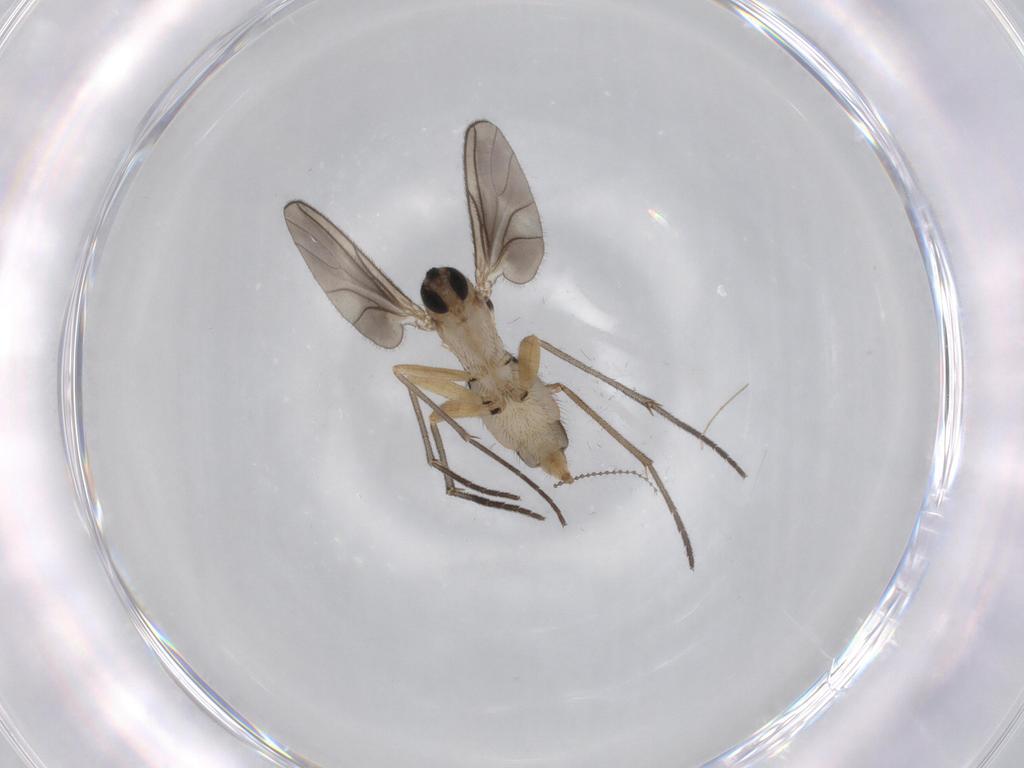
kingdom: Animalia
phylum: Arthropoda
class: Insecta
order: Diptera
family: Sciaridae
